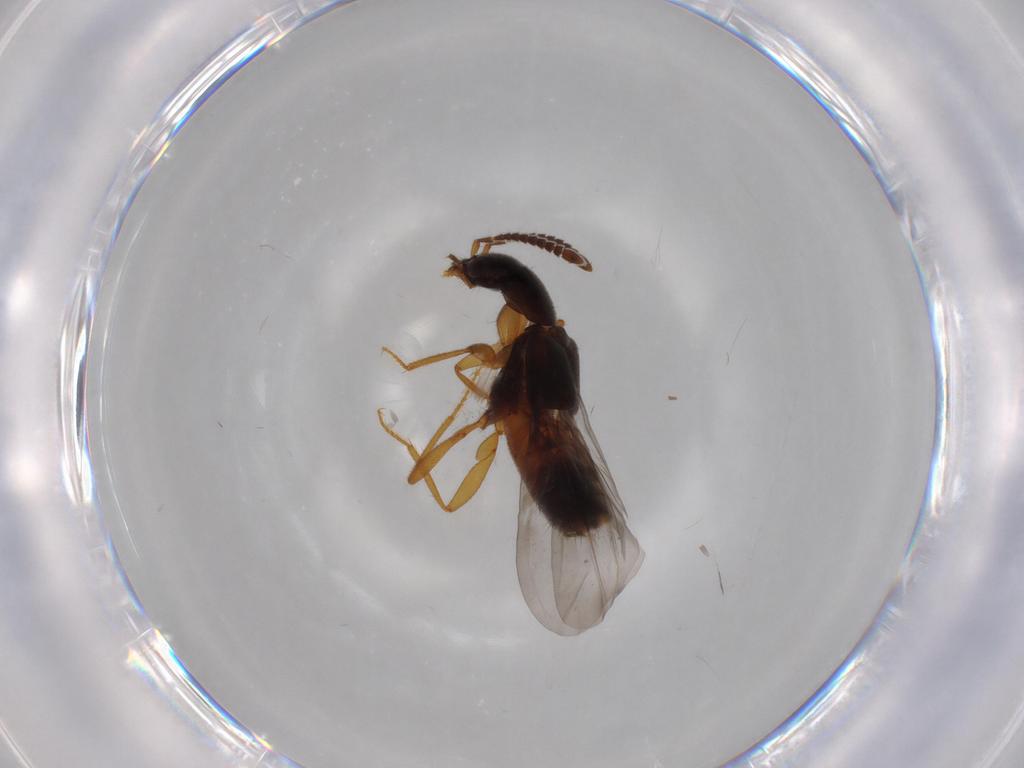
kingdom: Animalia
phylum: Arthropoda
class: Insecta
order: Coleoptera
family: Staphylinidae
